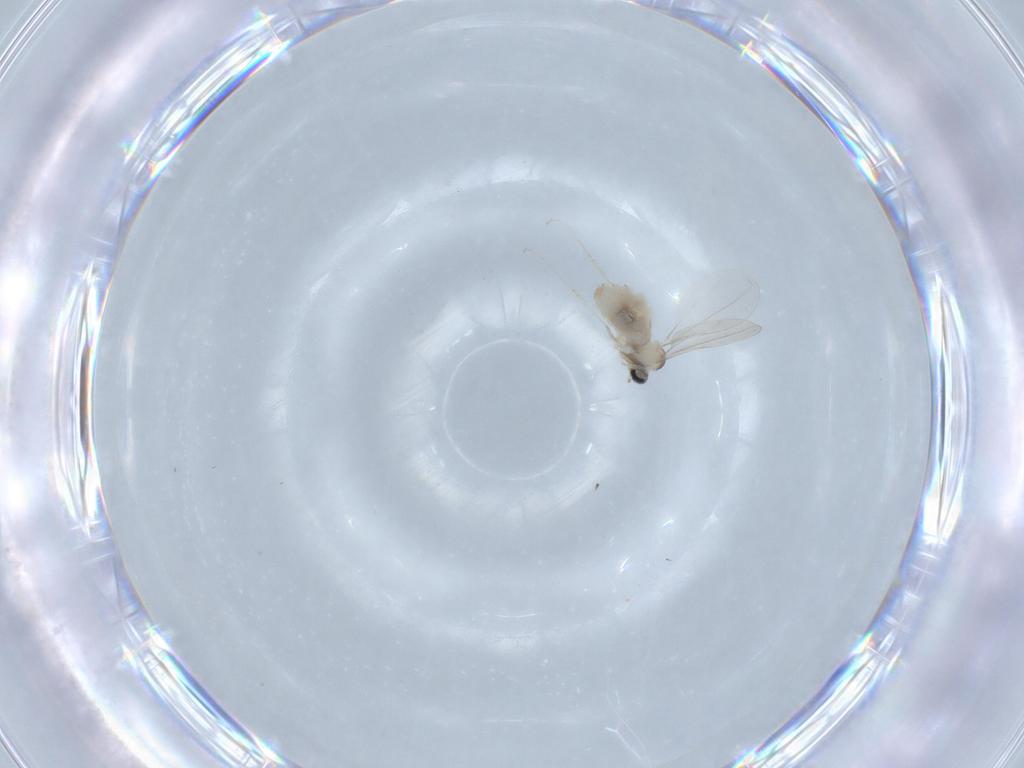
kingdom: Animalia
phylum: Arthropoda
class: Insecta
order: Diptera
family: Cecidomyiidae
